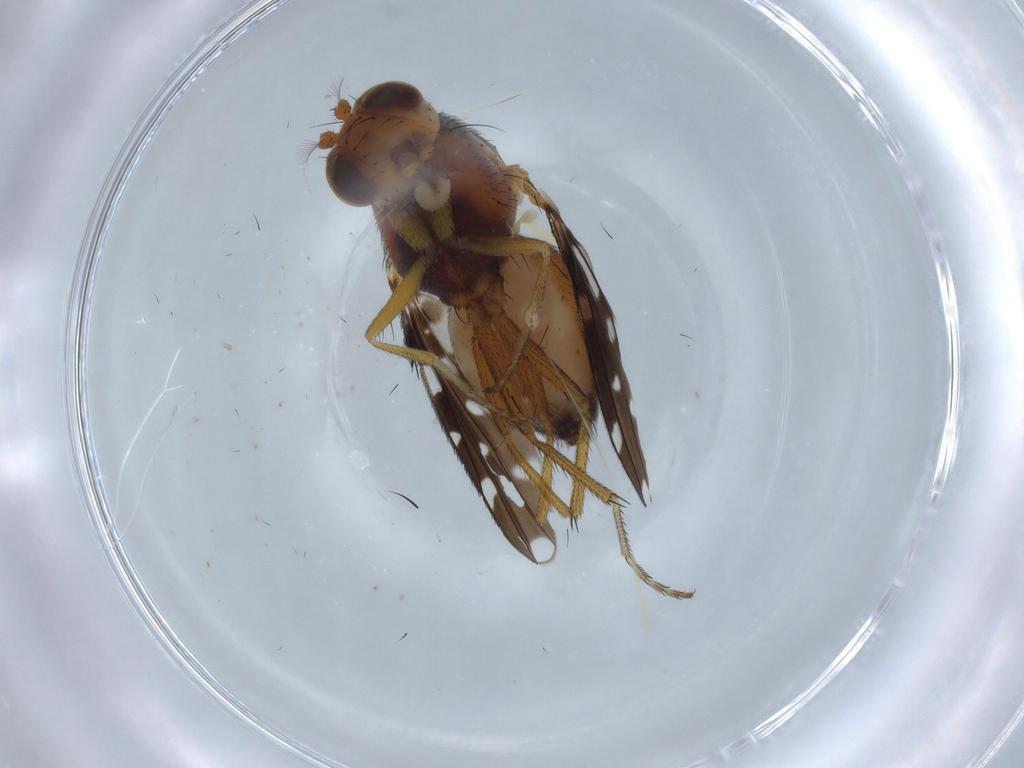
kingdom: Animalia
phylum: Arthropoda
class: Insecta
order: Diptera
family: Ephydridae
